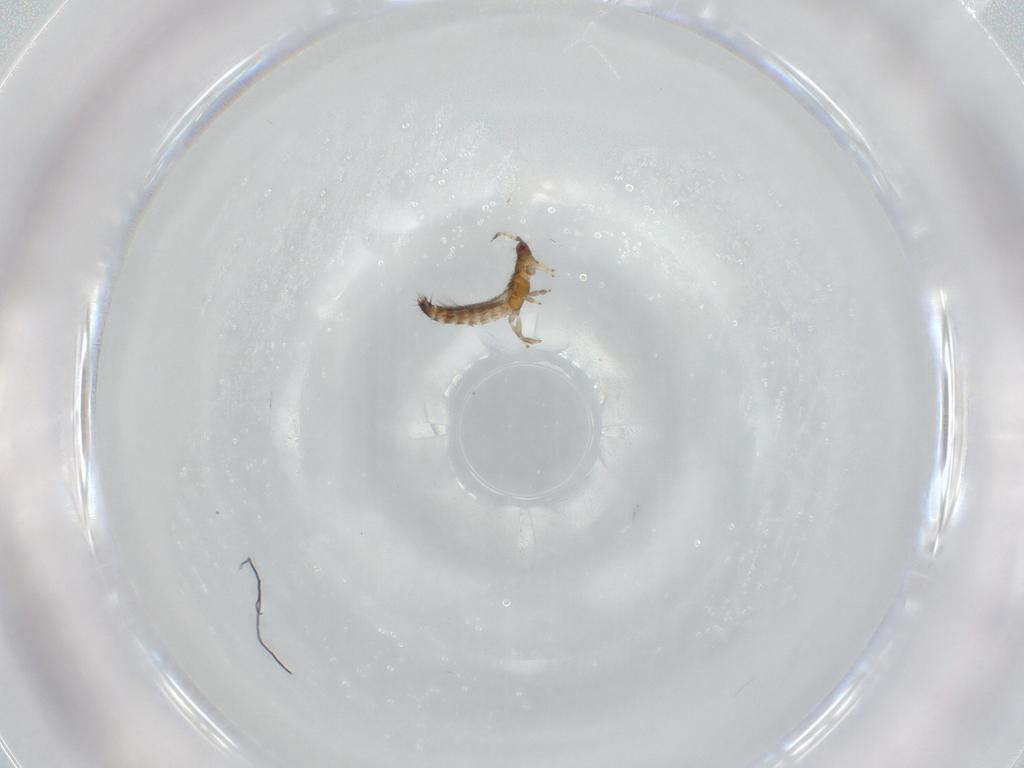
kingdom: Animalia
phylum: Arthropoda
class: Insecta
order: Thysanoptera
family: Thripidae
